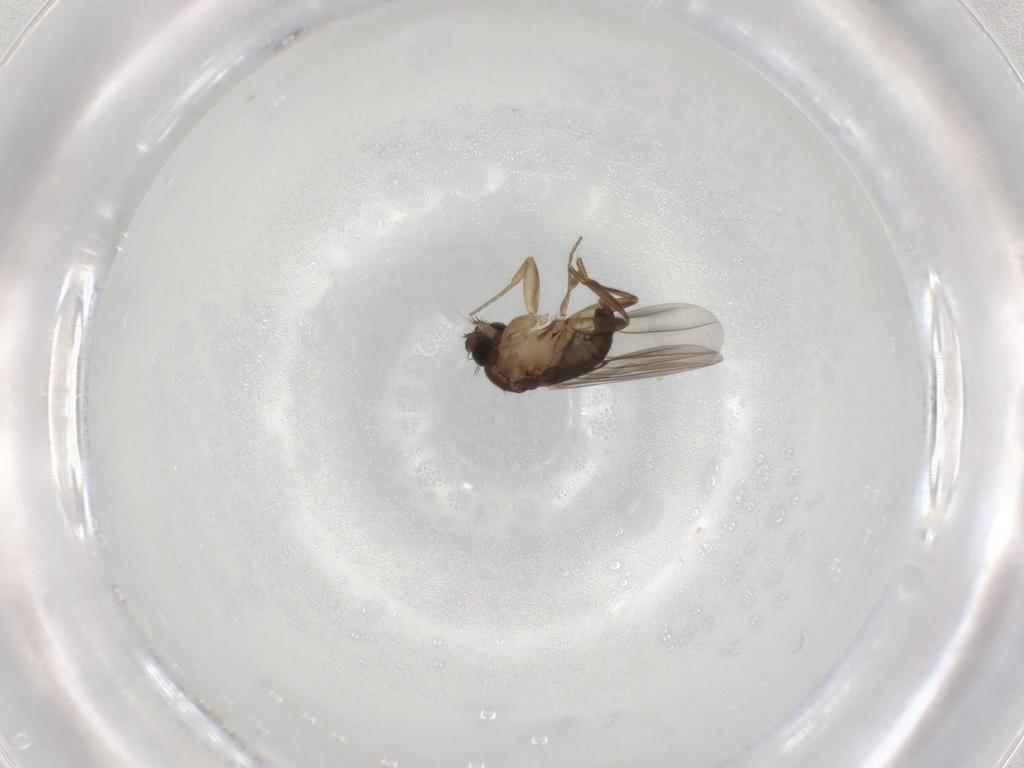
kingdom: Animalia
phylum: Arthropoda
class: Insecta
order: Diptera
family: Phoridae
